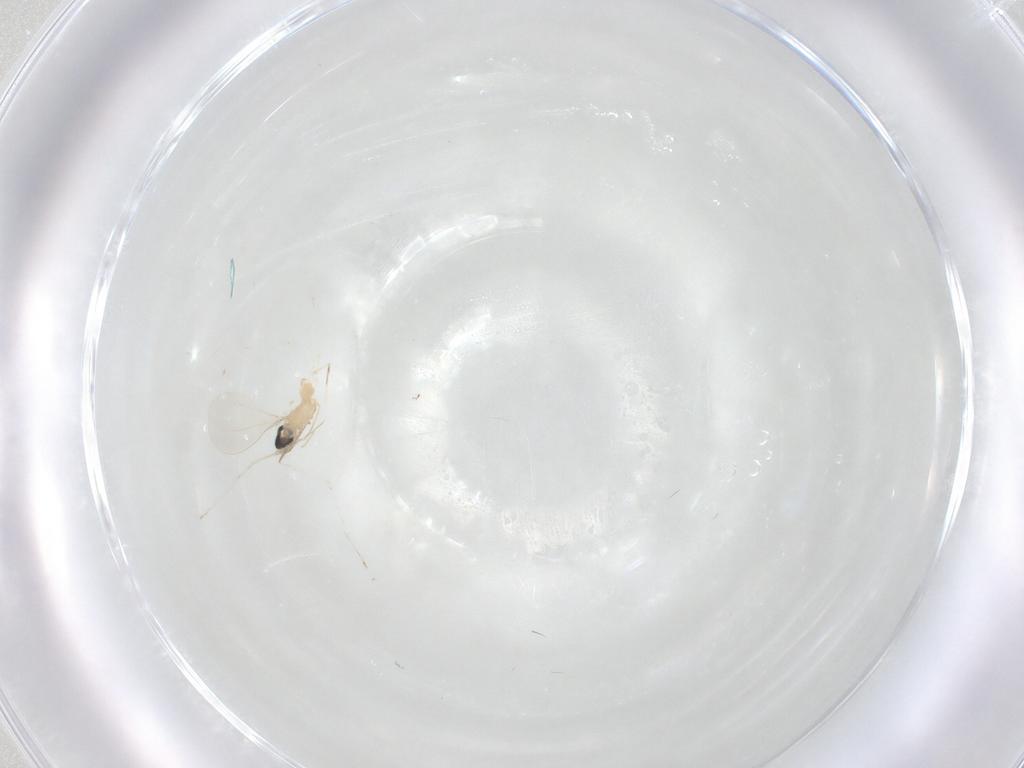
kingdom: Animalia
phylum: Arthropoda
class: Insecta
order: Diptera
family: Cecidomyiidae
